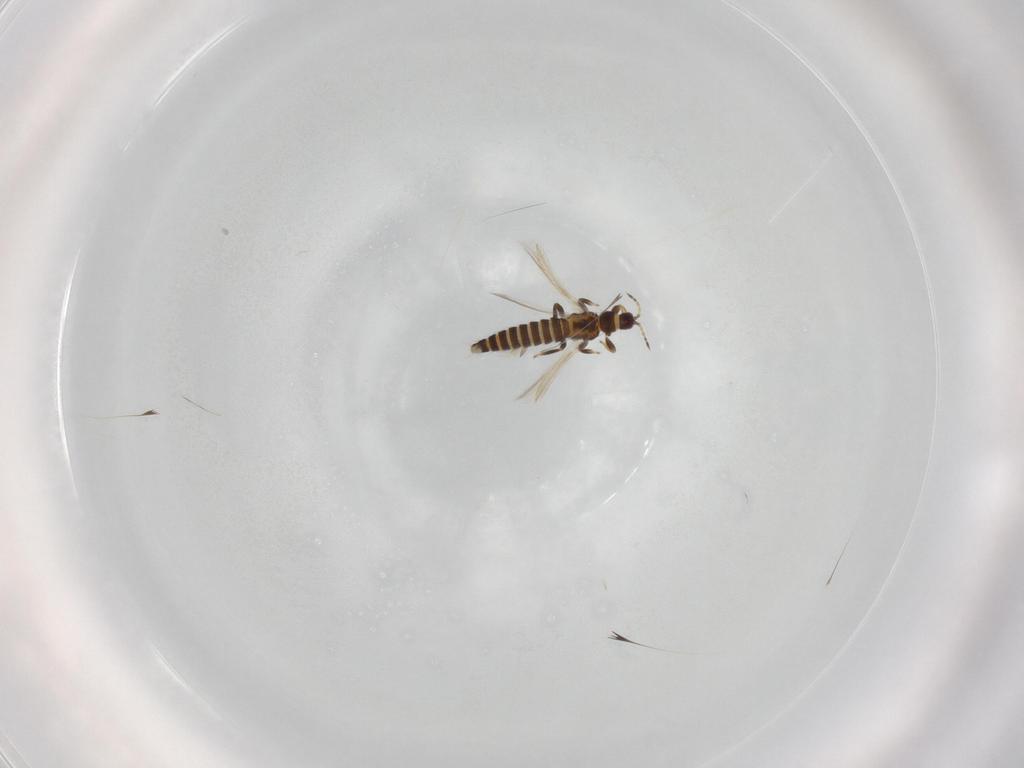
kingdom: Animalia
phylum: Arthropoda
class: Insecta
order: Thysanoptera
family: Thripidae
